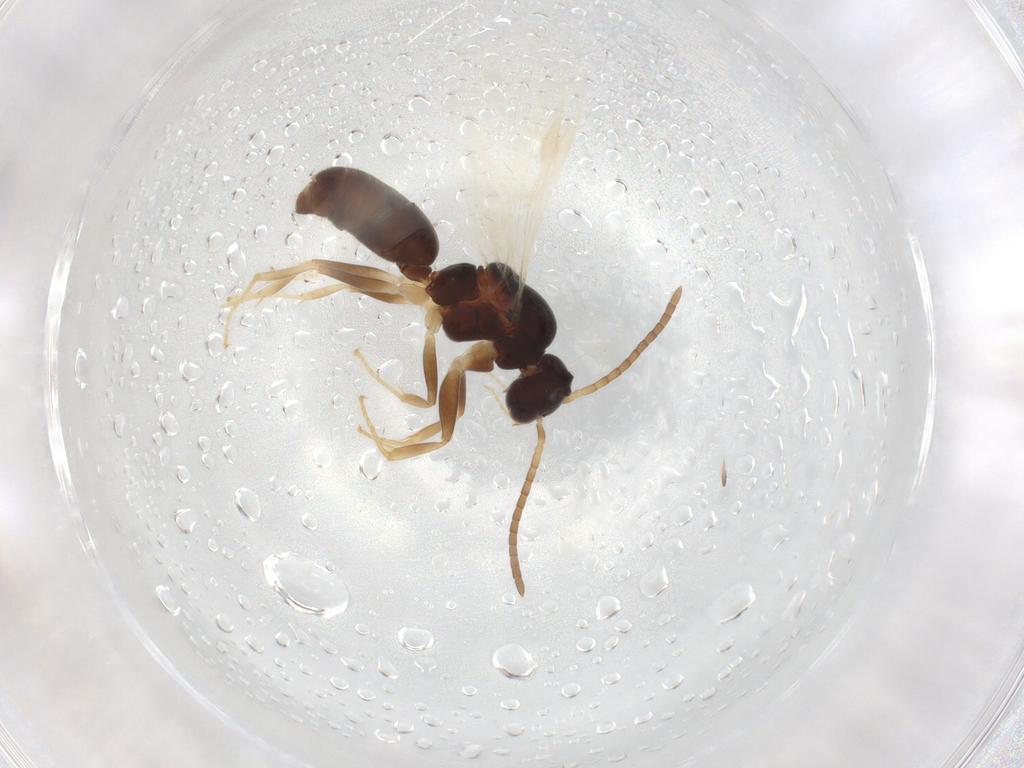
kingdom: Animalia
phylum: Arthropoda
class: Insecta
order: Hymenoptera
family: Formicidae
